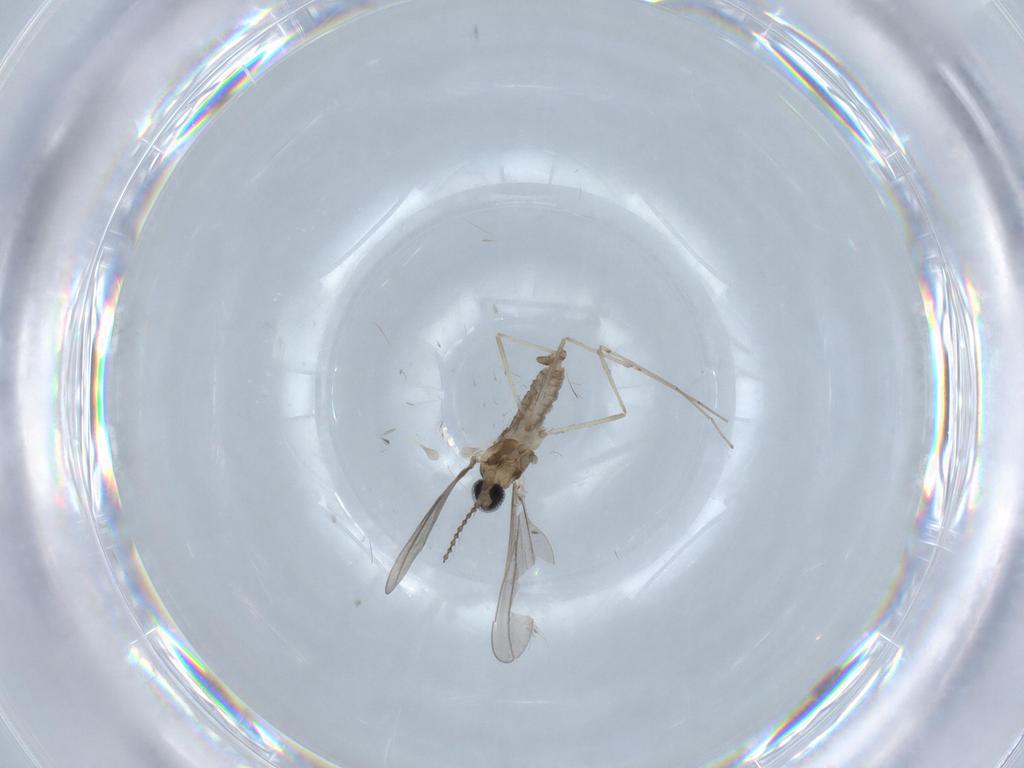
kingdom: Animalia
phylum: Arthropoda
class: Insecta
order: Diptera
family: Cecidomyiidae
